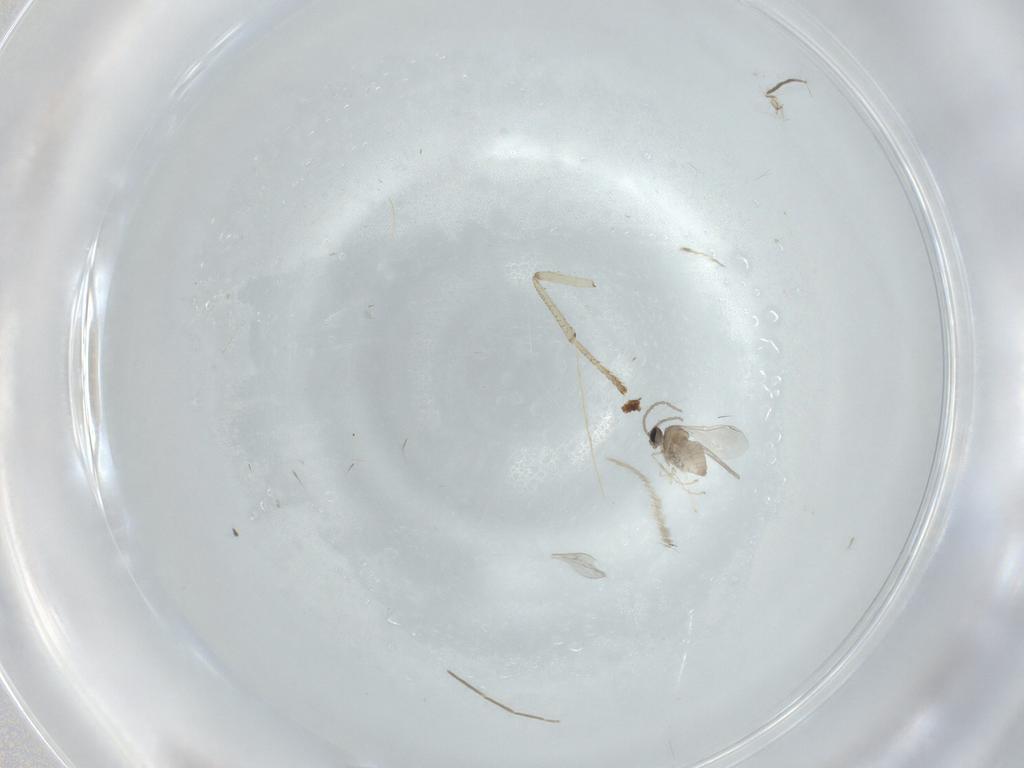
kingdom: Animalia
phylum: Arthropoda
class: Insecta
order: Diptera
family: Psychodidae
